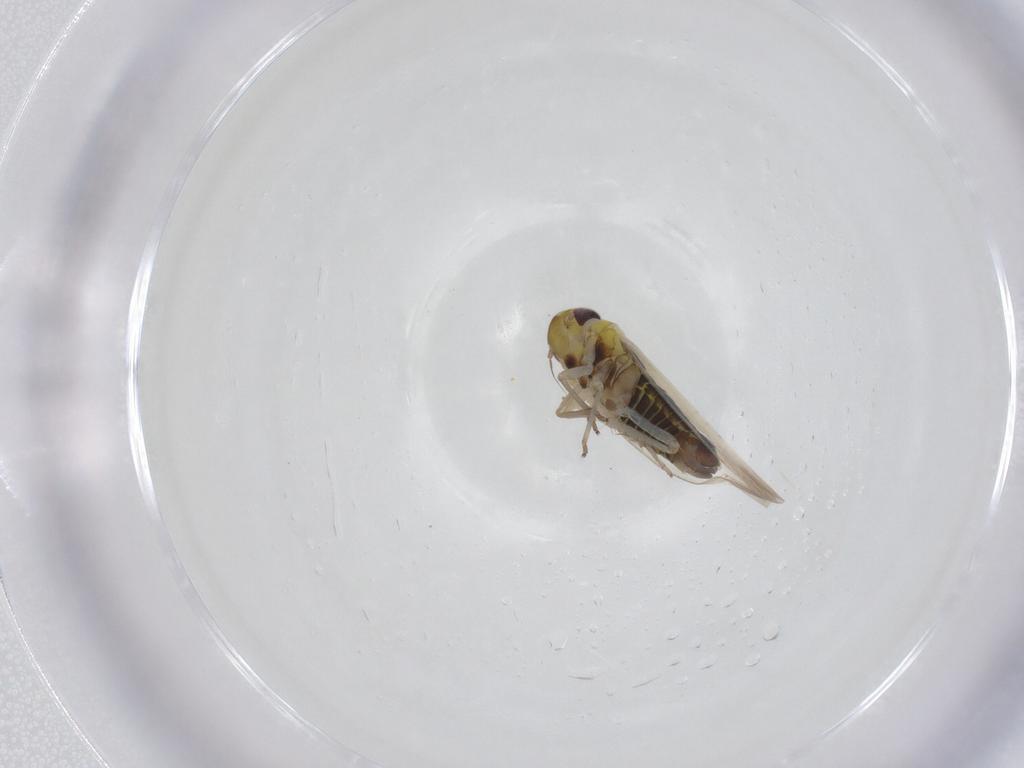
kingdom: Animalia
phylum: Arthropoda
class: Insecta
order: Hemiptera
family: Cicadellidae
